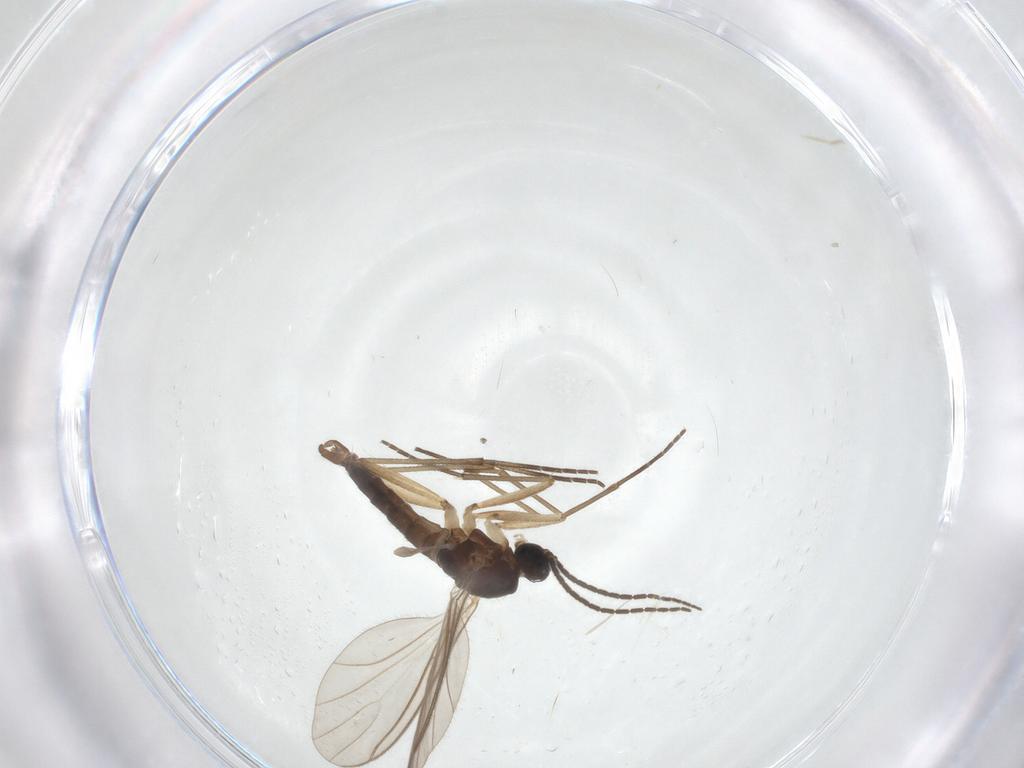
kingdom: Animalia
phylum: Arthropoda
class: Insecta
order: Diptera
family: Sciaridae
